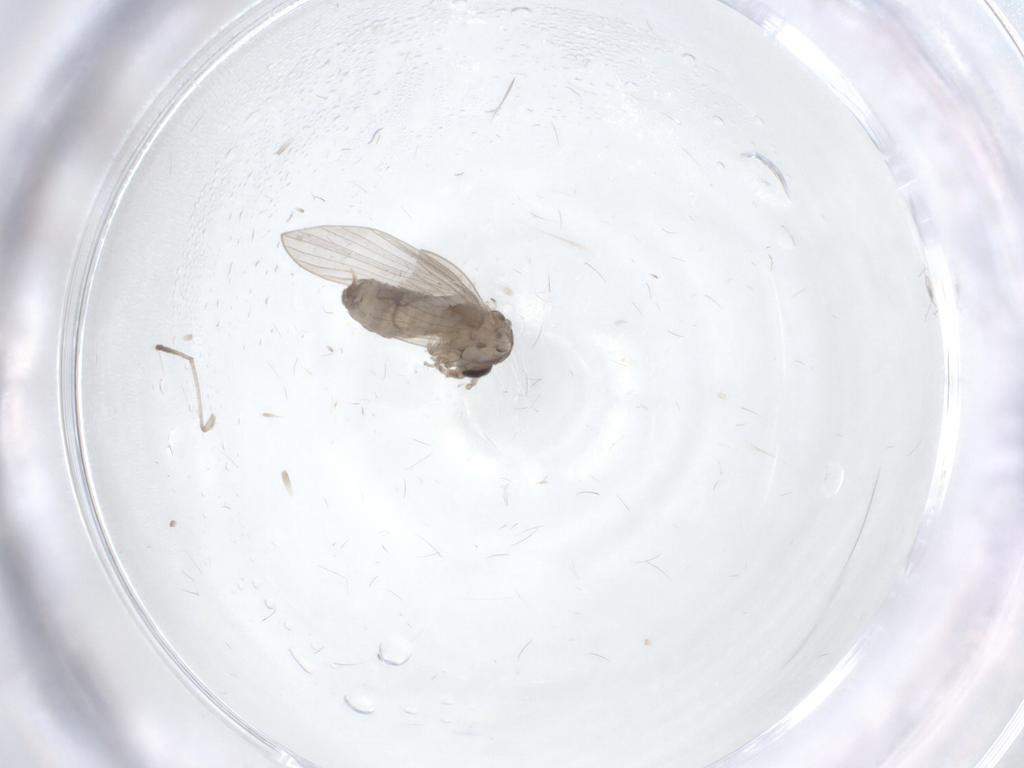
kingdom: Animalia
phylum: Arthropoda
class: Insecta
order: Diptera
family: Psychodidae
